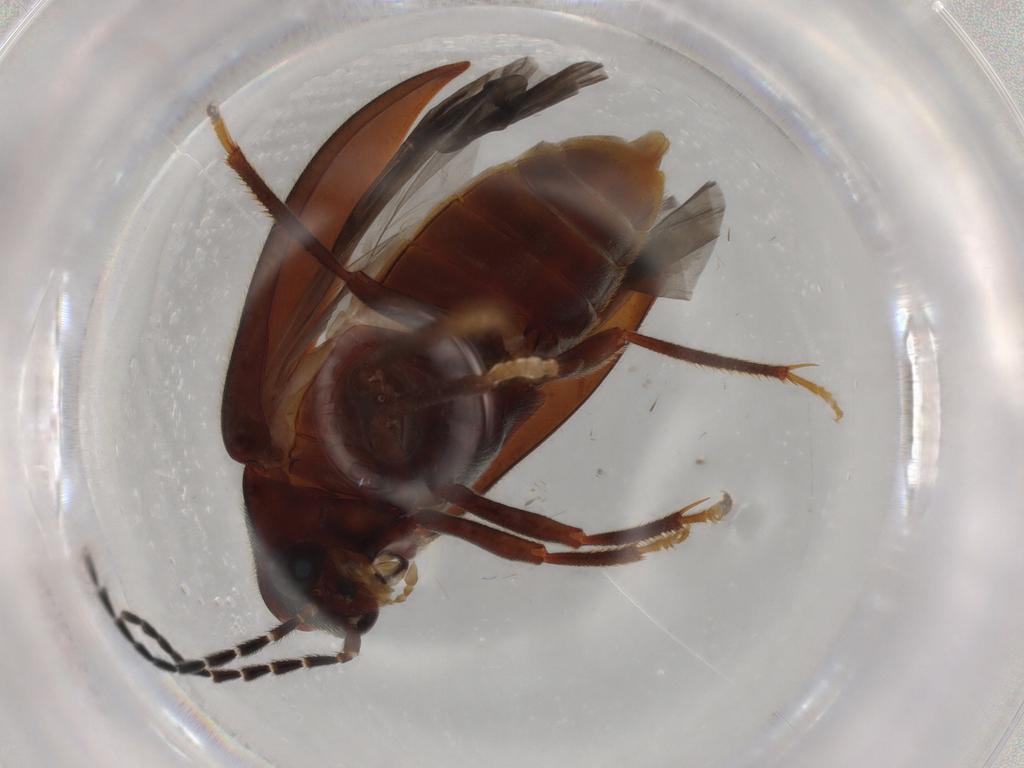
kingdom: Animalia
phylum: Arthropoda
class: Insecta
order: Coleoptera
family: Ptilodactylidae
